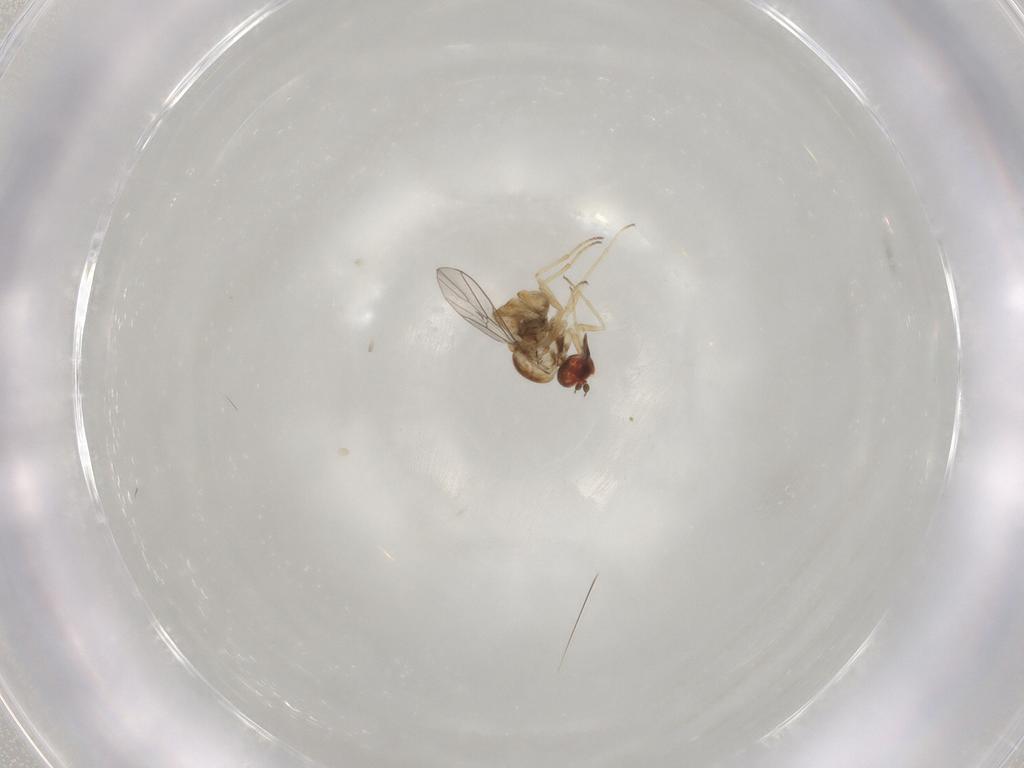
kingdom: Animalia
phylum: Arthropoda
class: Insecta
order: Diptera
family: Mythicomyiidae
